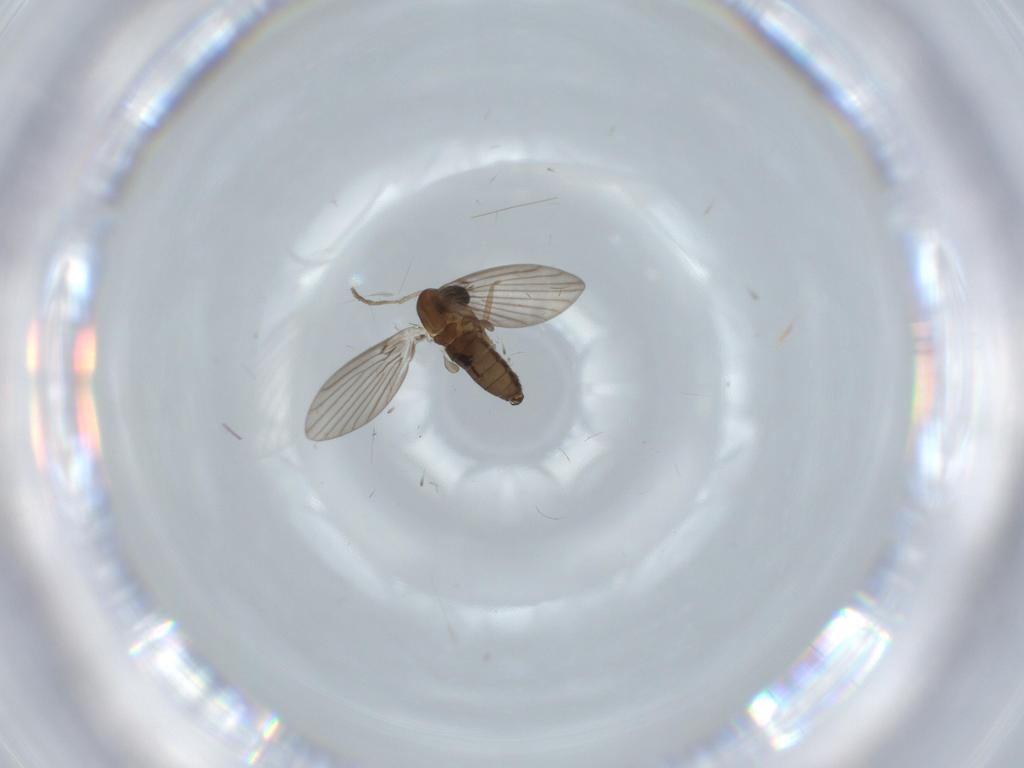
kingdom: Animalia
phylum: Arthropoda
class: Insecta
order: Diptera
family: Psychodidae
